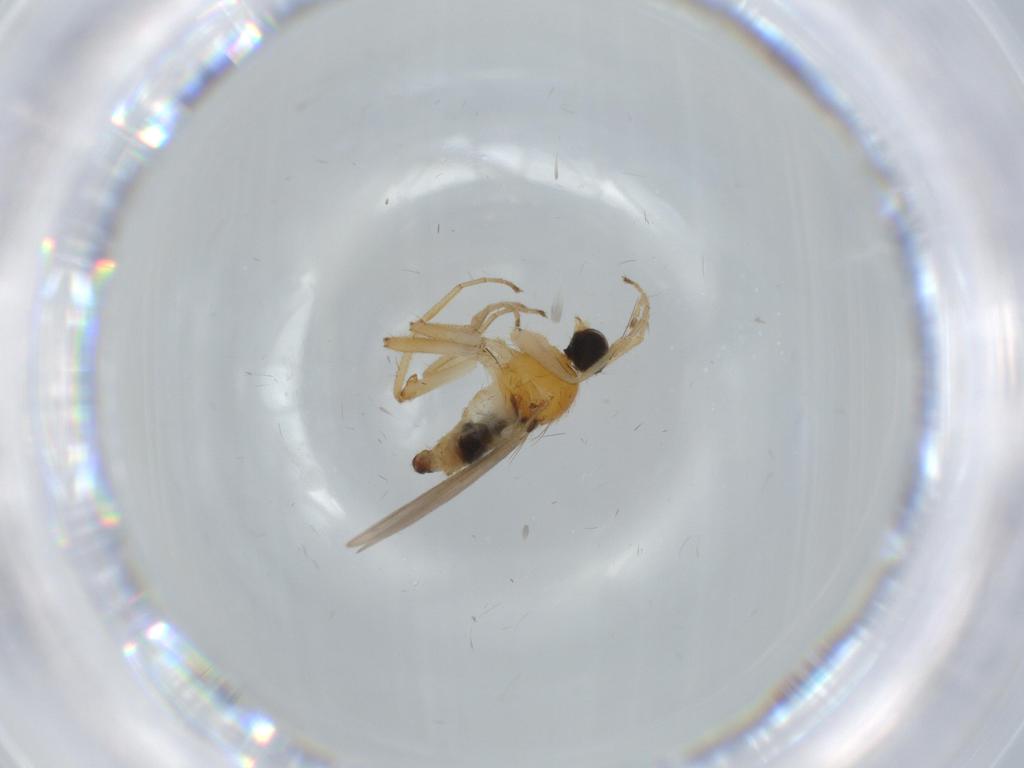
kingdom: Animalia
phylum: Arthropoda
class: Insecta
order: Diptera
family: Hybotidae
